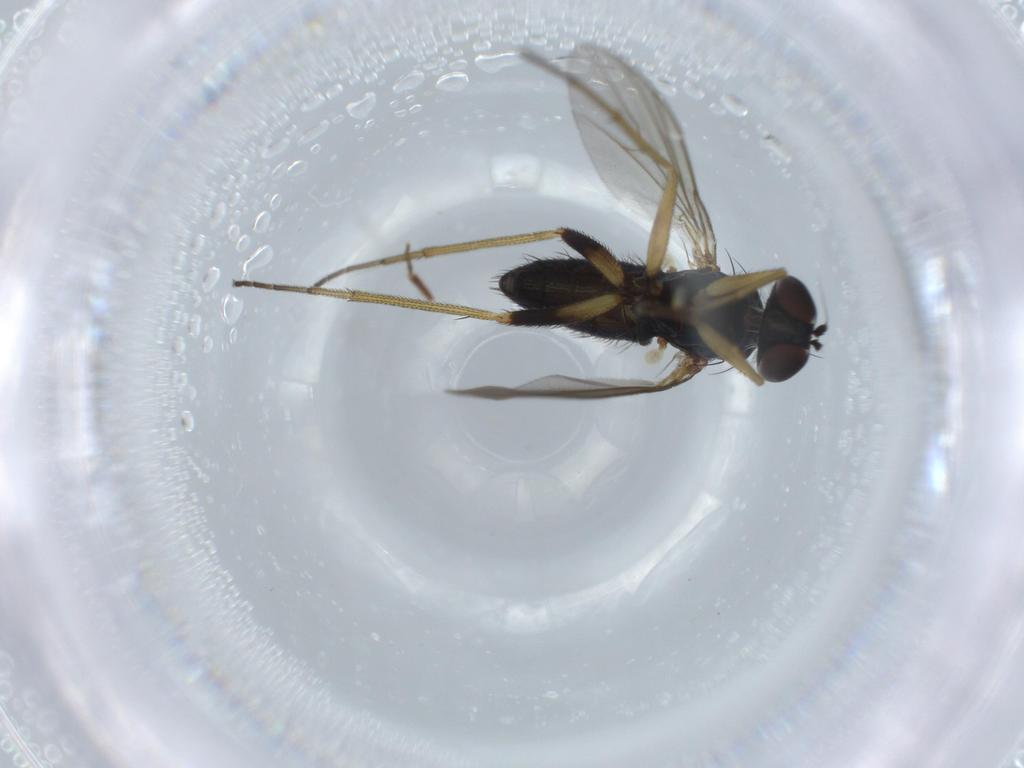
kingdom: Animalia
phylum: Arthropoda
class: Insecta
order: Diptera
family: Dolichopodidae
